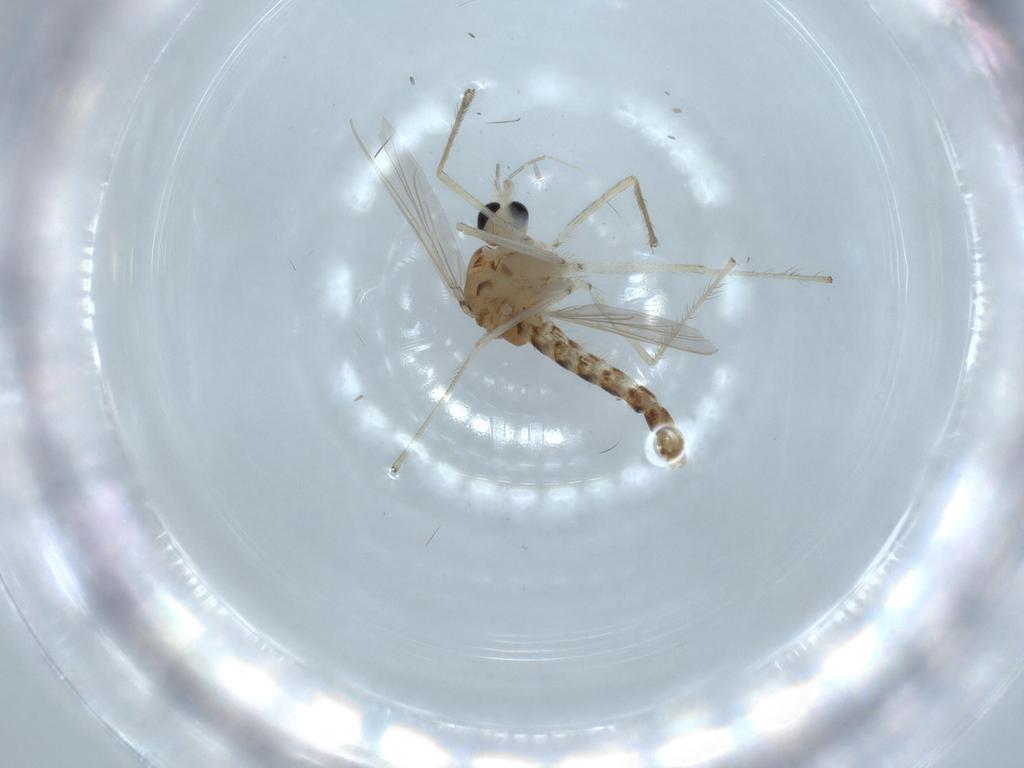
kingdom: Animalia
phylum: Arthropoda
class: Insecta
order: Diptera
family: Chironomidae
